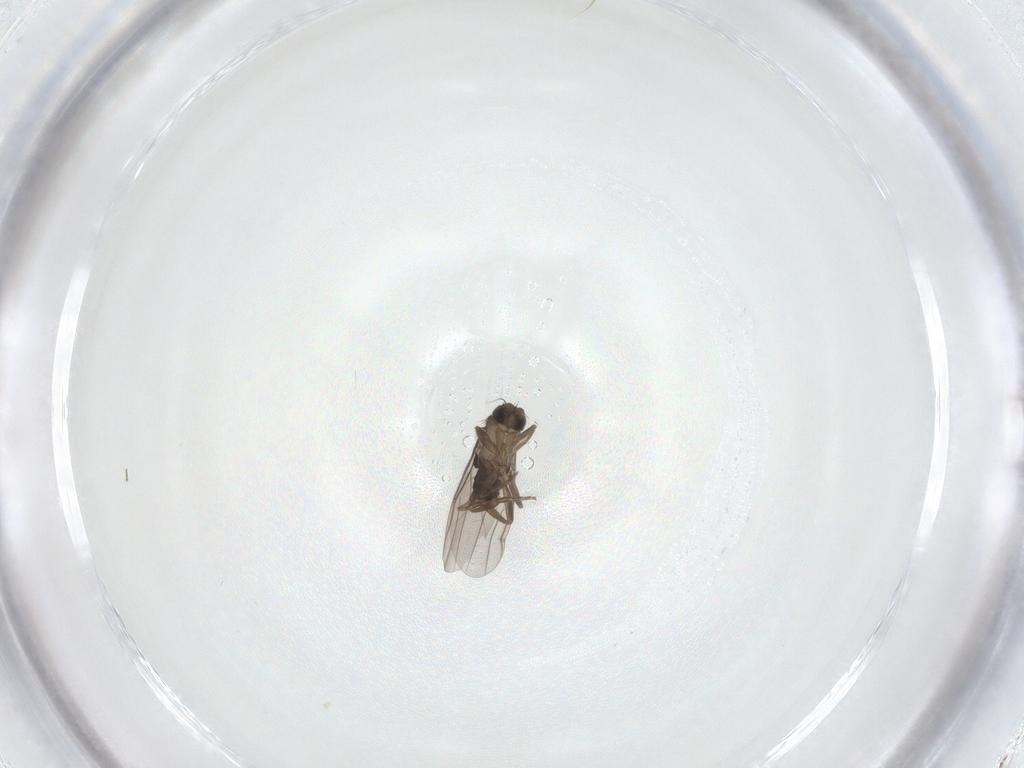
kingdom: Animalia
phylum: Arthropoda
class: Insecta
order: Diptera
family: Phoridae
